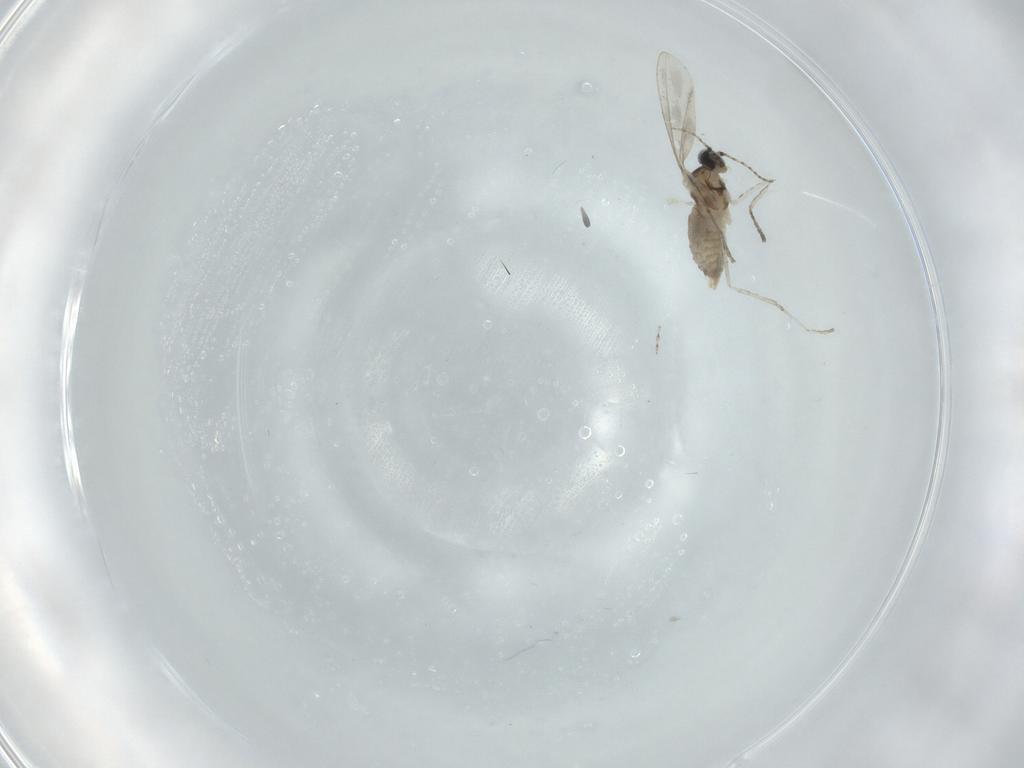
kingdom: Animalia
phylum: Arthropoda
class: Insecta
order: Diptera
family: Cecidomyiidae
